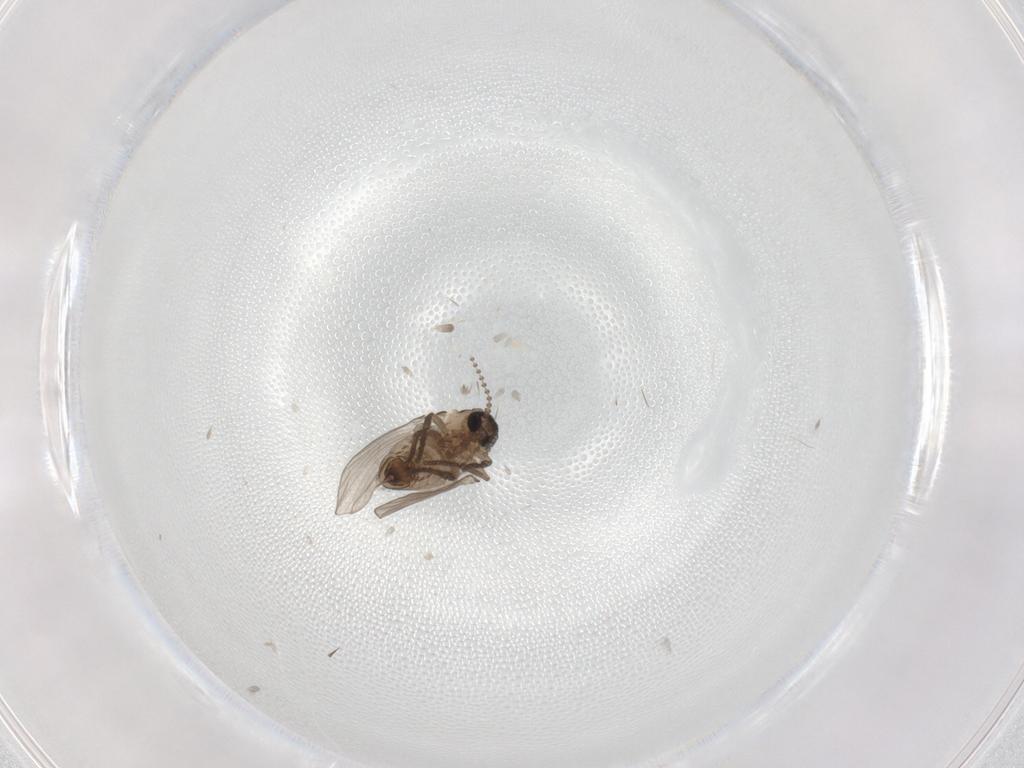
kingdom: Animalia
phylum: Arthropoda
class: Insecta
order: Diptera
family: Psychodidae
